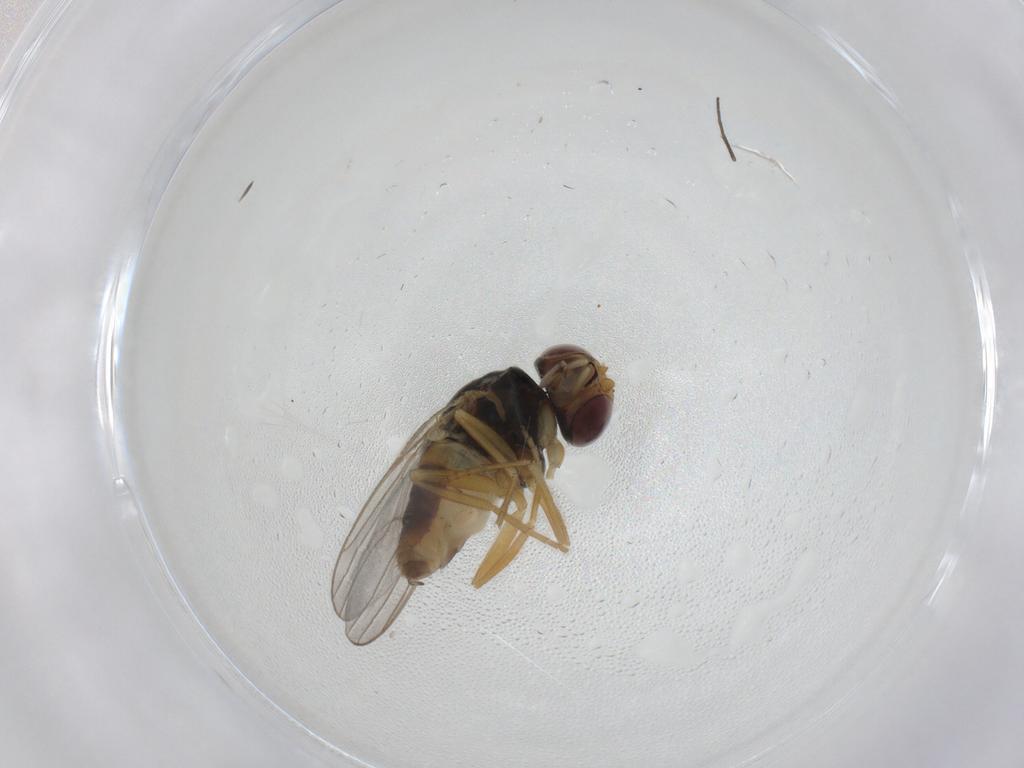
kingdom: Animalia
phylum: Arthropoda
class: Insecta
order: Diptera
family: Chloropidae
